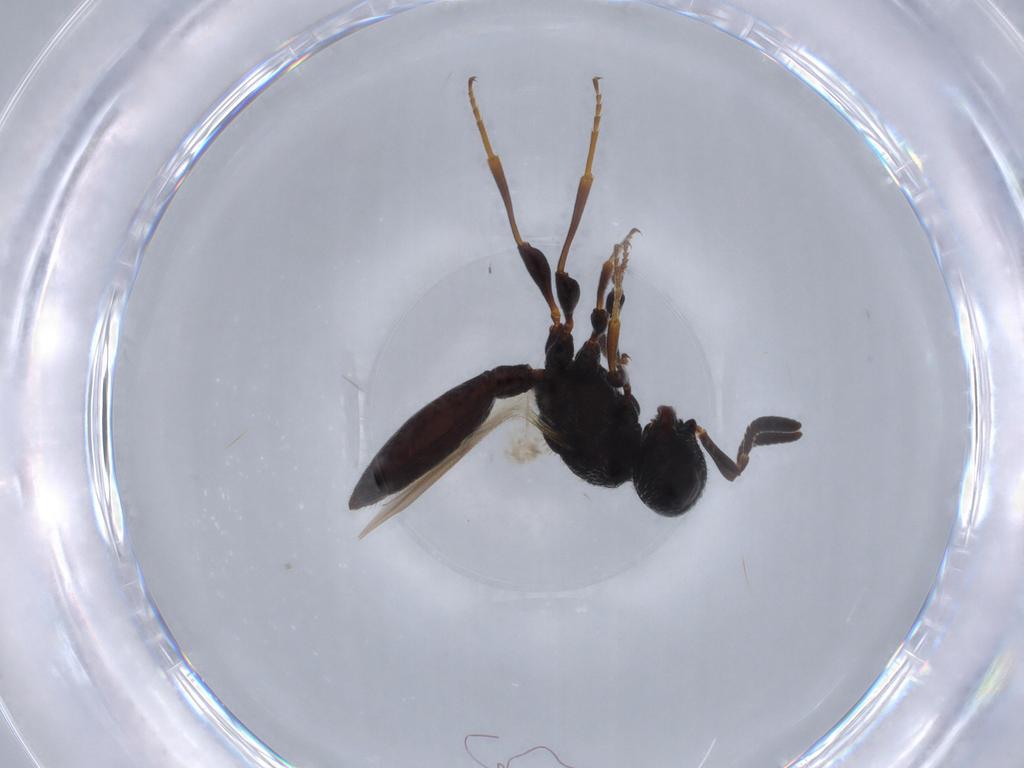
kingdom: Animalia
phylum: Arthropoda
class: Insecta
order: Hymenoptera
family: Scelionidae
